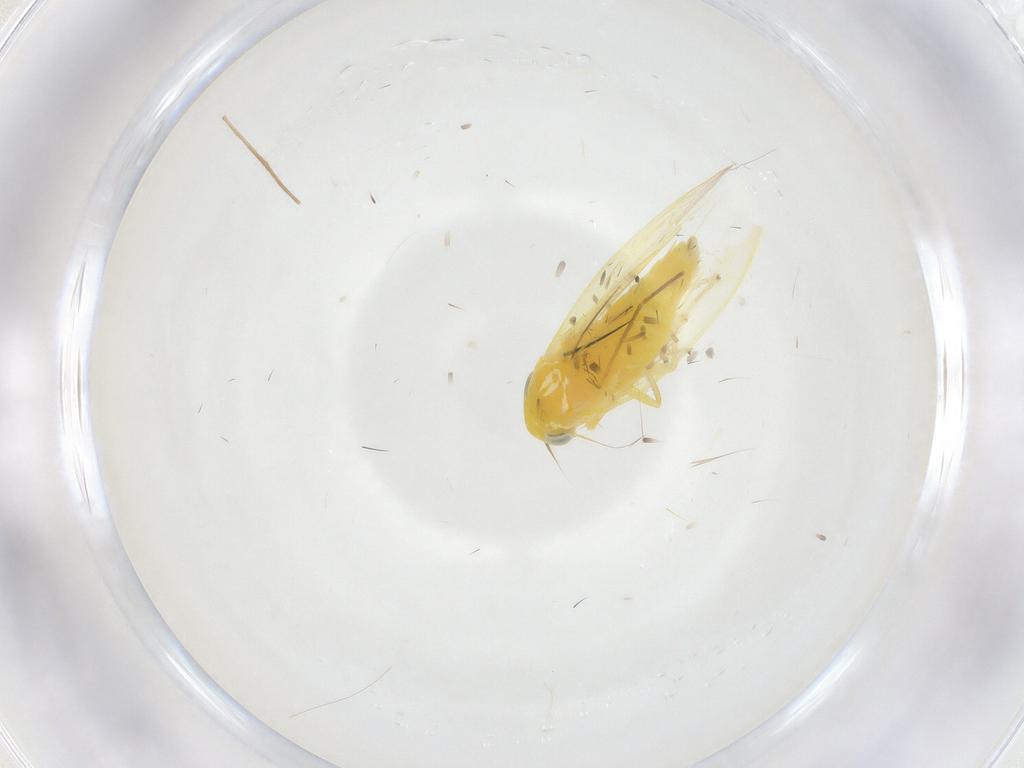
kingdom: Animalia
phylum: Arthropoda
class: Insecta
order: Hemiptera
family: Cicadellidae
